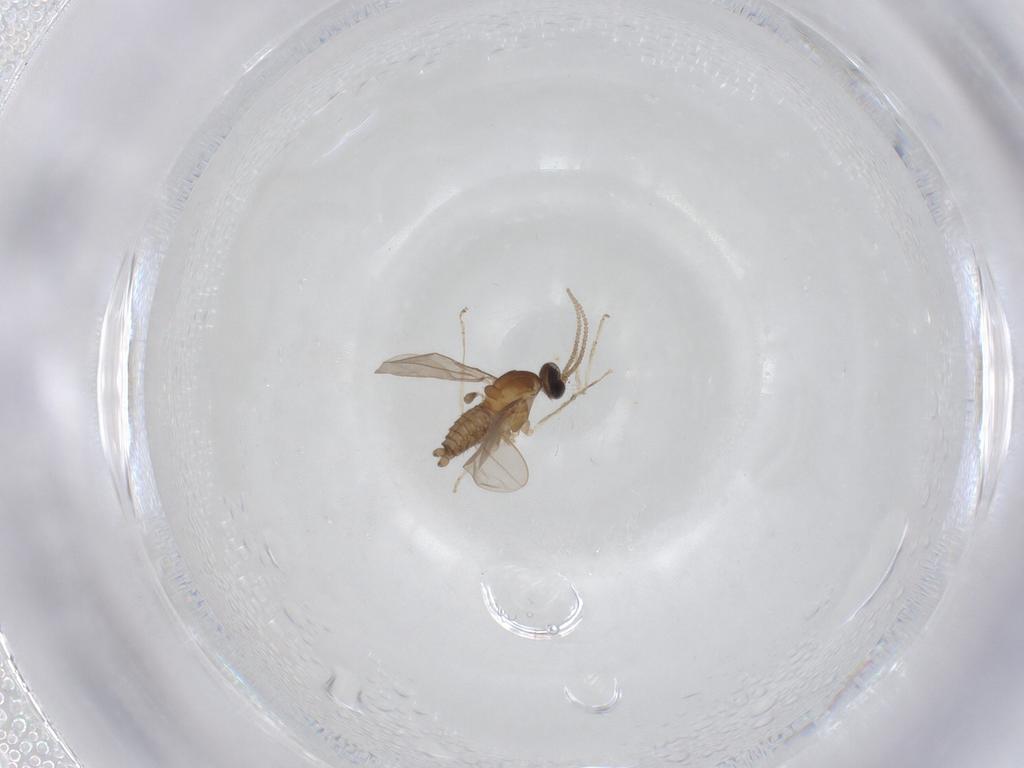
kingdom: Animalia
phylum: Arthropoda
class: Insecta
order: Diptera
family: Cecidomyiidae
